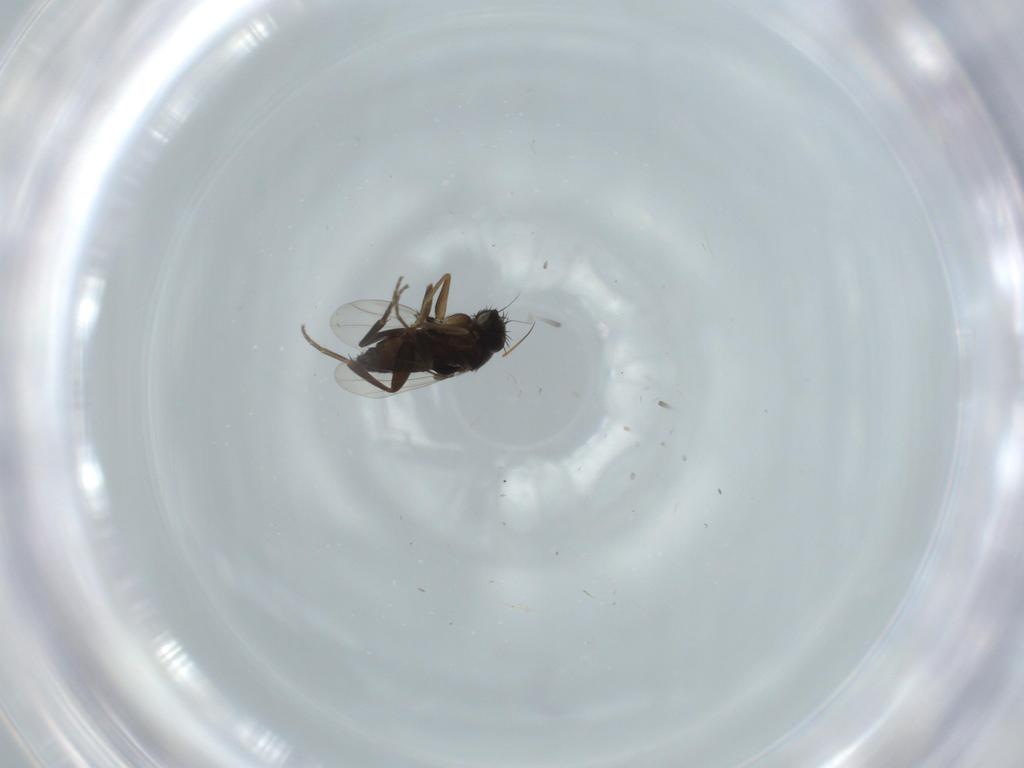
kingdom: Animalia
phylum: Arthropoda
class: Insecta
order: Diptera
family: Phoridae
